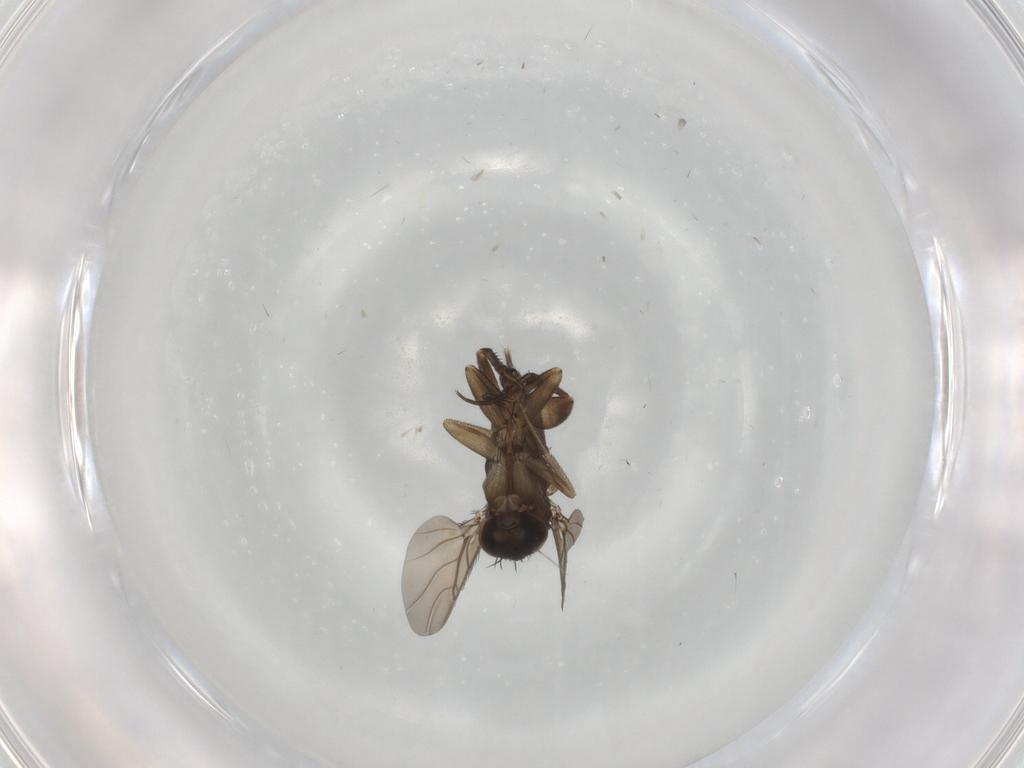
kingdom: Animalia
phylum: Arthropoda
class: Insecta
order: Diptera
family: Phoridae
